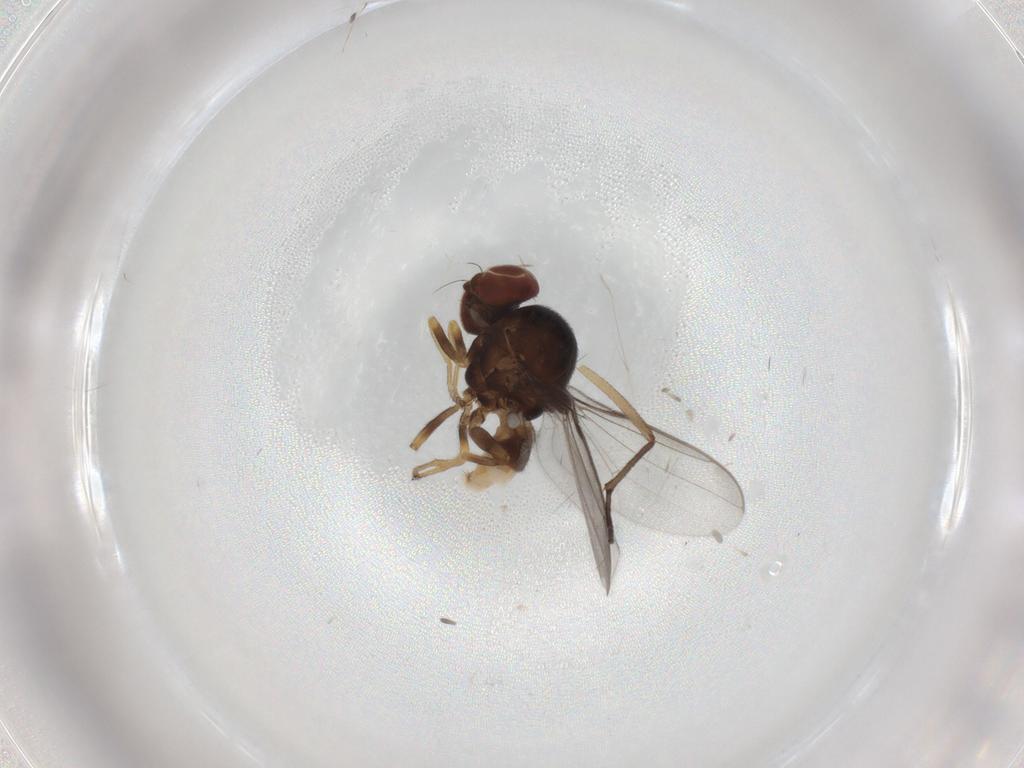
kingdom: Animalia
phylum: Arthropoda
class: Insecta
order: Diptera
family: Chloropidae
